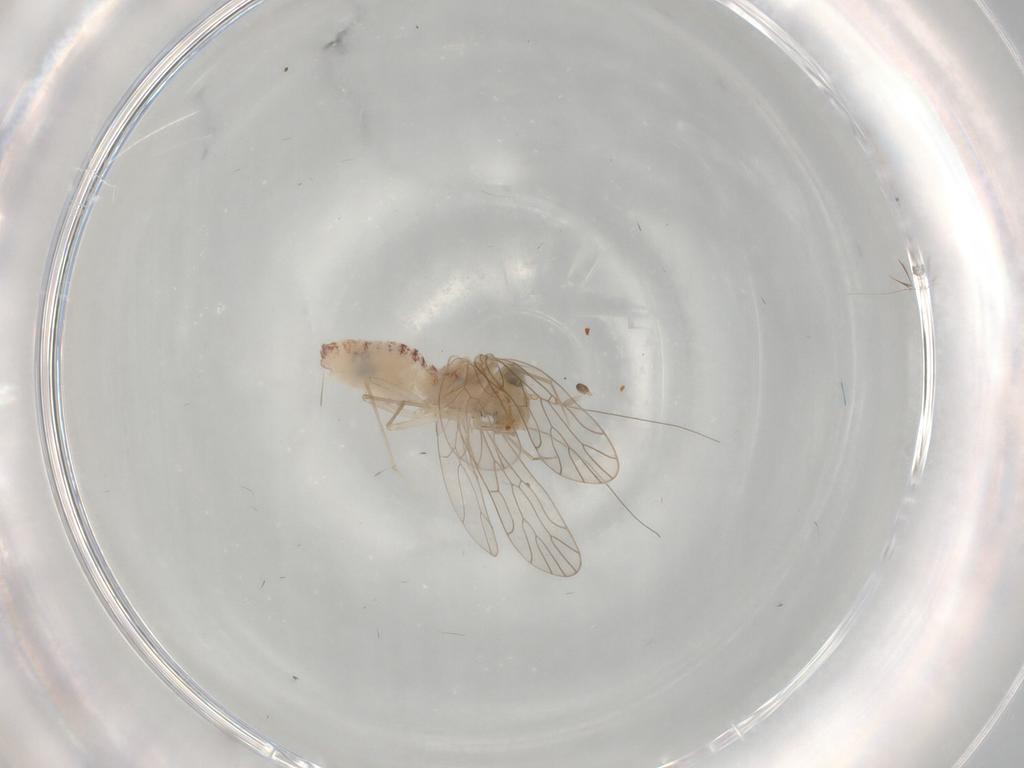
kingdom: Animalia
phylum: Arthropoda
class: Insecta
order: Psocodea
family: Amphientomidae
